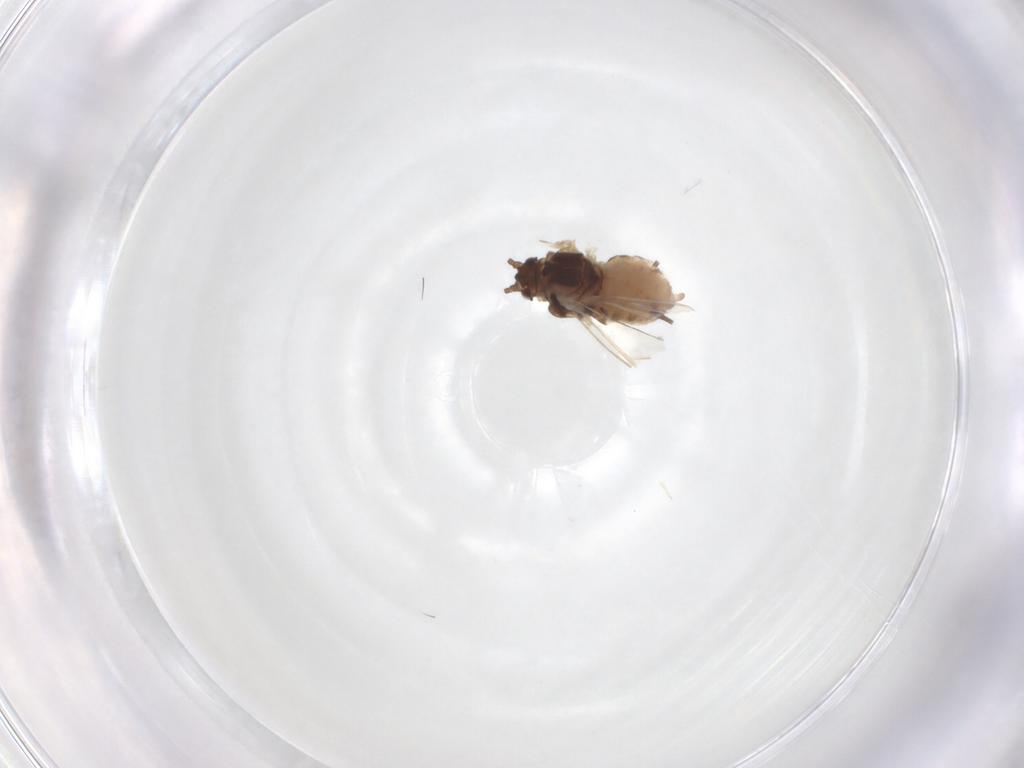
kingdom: Animalia
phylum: Arthropoda
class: Insecta
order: Hemiptera
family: Aphididae
